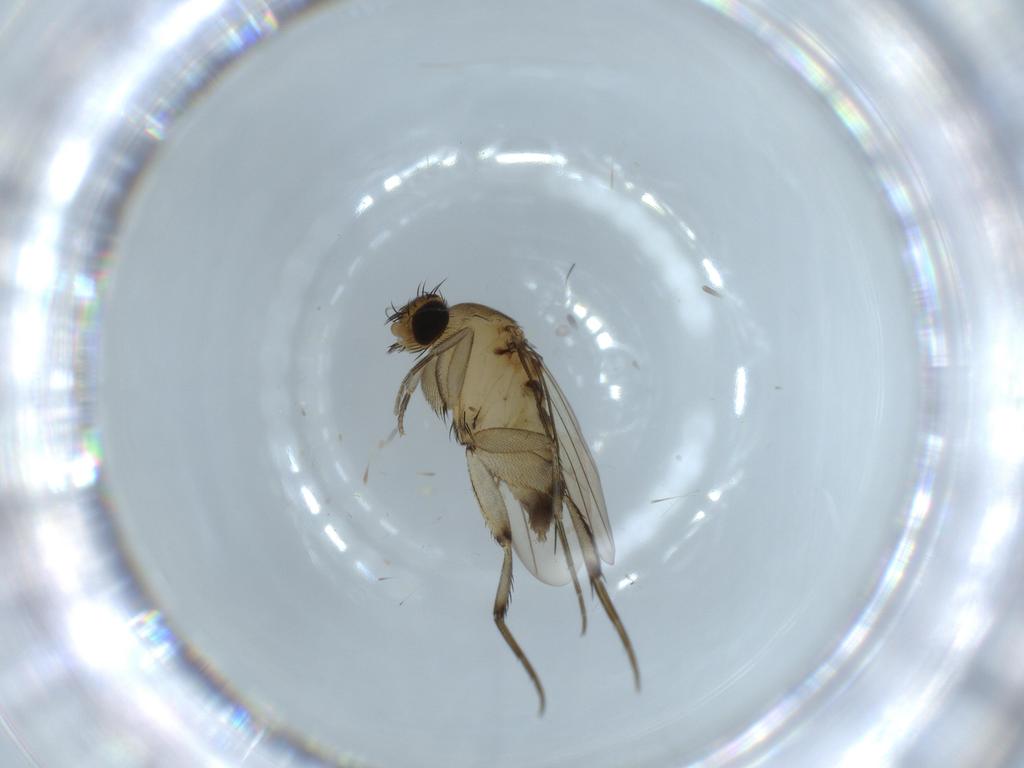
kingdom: Animalia
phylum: Arthropoda
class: Insecta
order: Diptera
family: Phoridae
